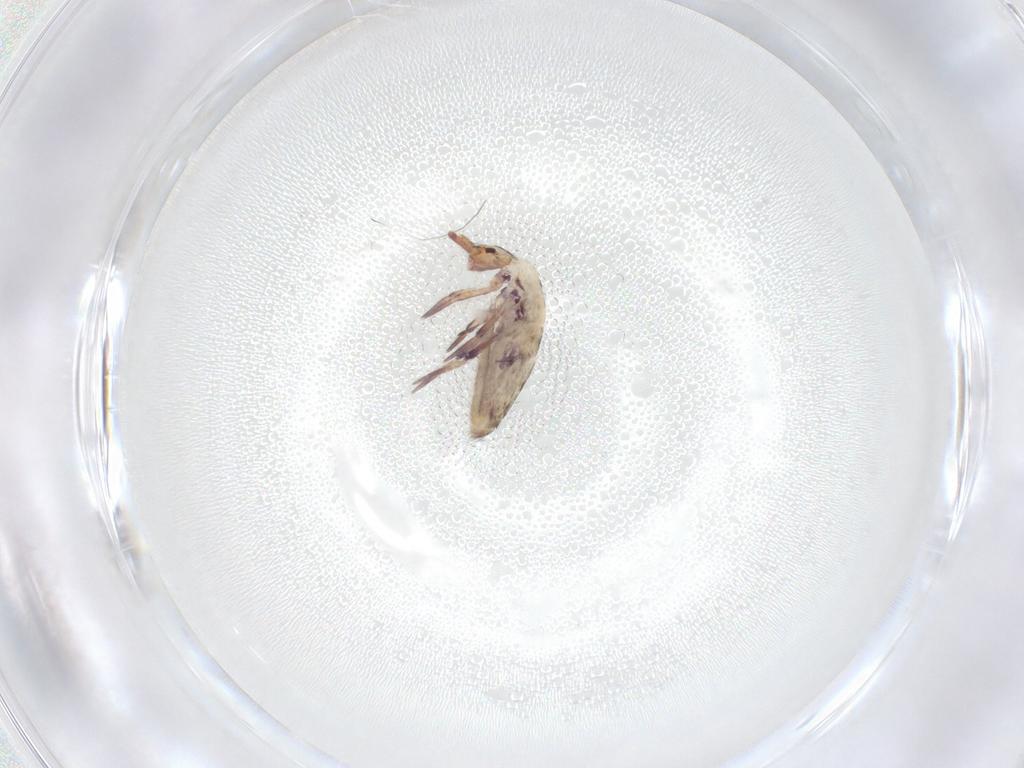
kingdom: Animalia
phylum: Arthropoda
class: Collembola
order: Entomobryomorpha
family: Entomobryidae
